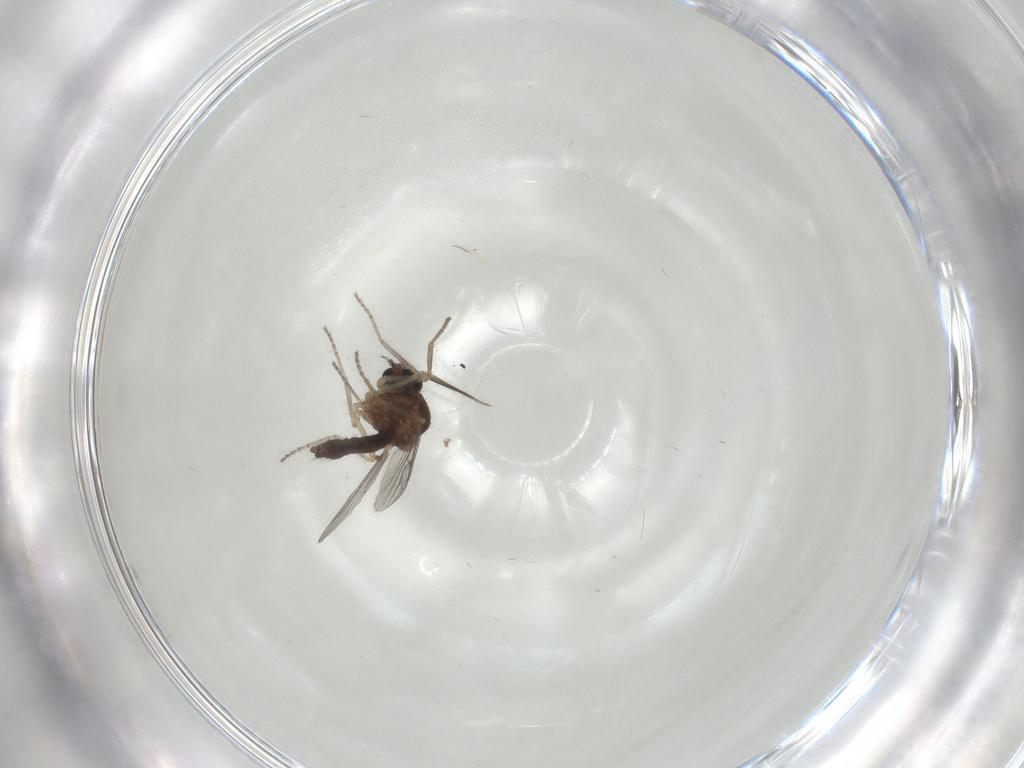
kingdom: Animalia
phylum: Arthropoda
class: Insecta
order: Diptera
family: Ceratopogonidae
